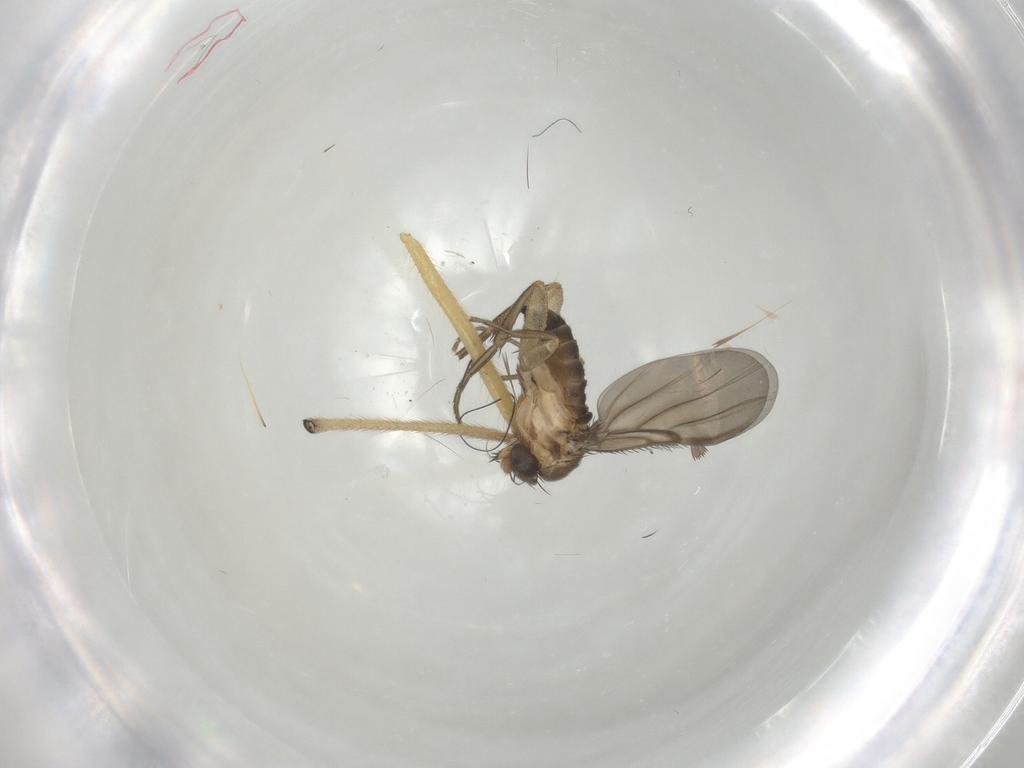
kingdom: Animalia
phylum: Arthropoda
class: Insecta
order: Diptera
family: Phoridae
